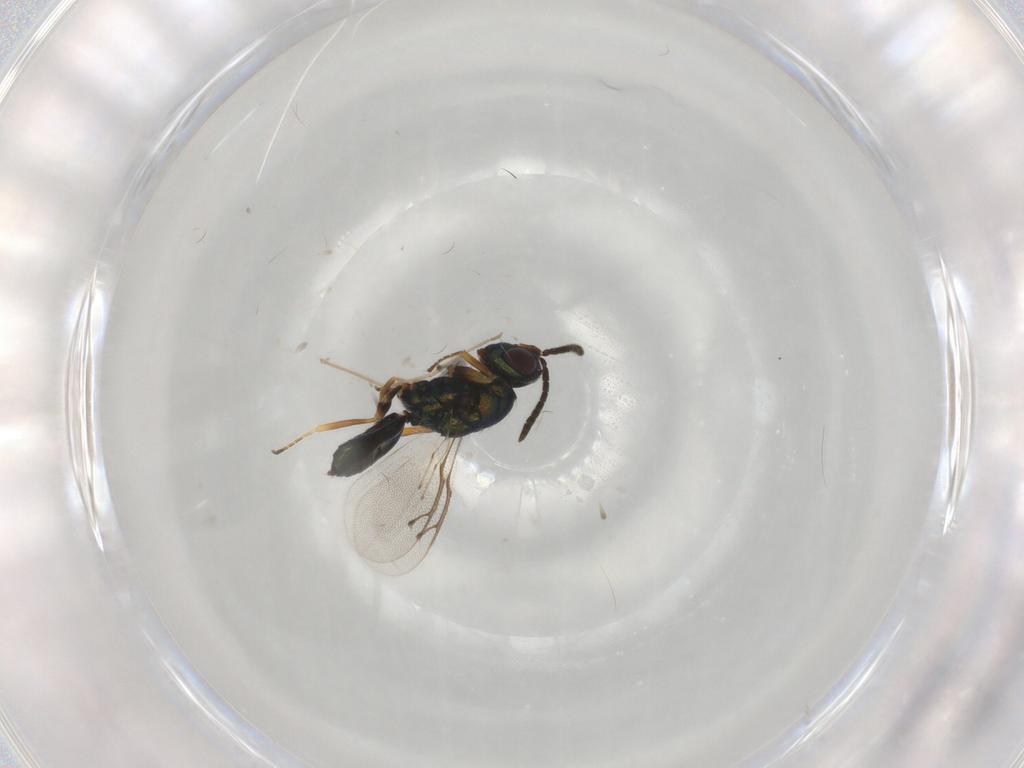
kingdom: Animalia
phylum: Arthropoda
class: Insecta
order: Hymenoptera
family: Pteromalidae
